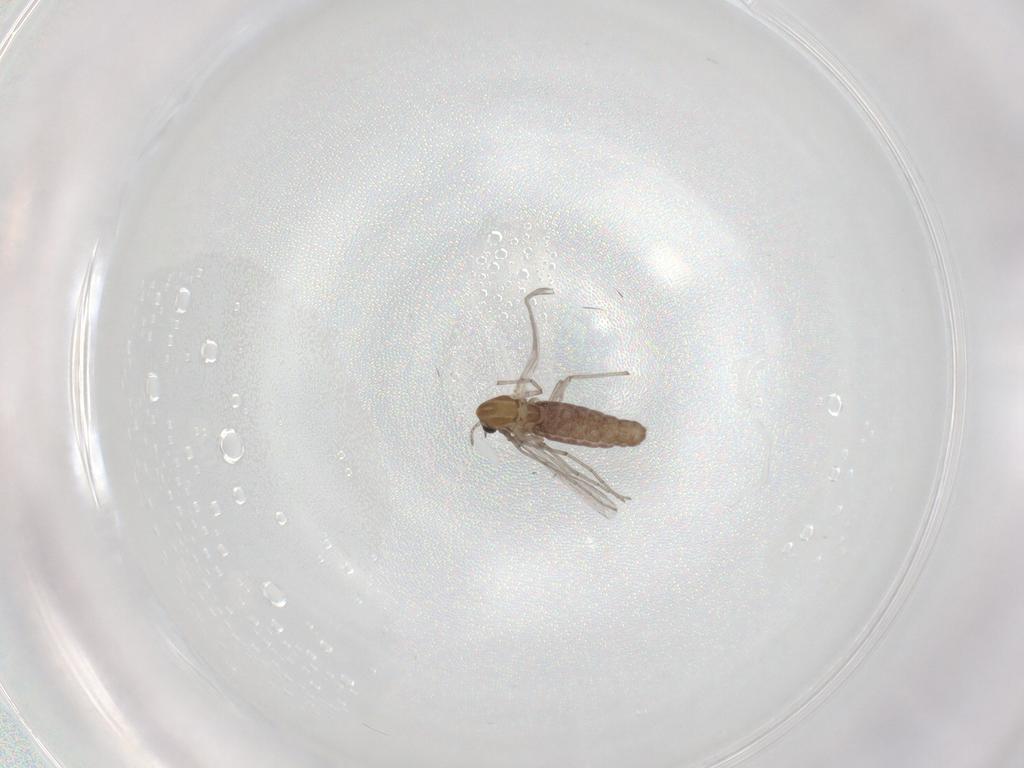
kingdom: Animalia
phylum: Arthropoda
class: Insecta
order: Diptera
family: Chironomidae
